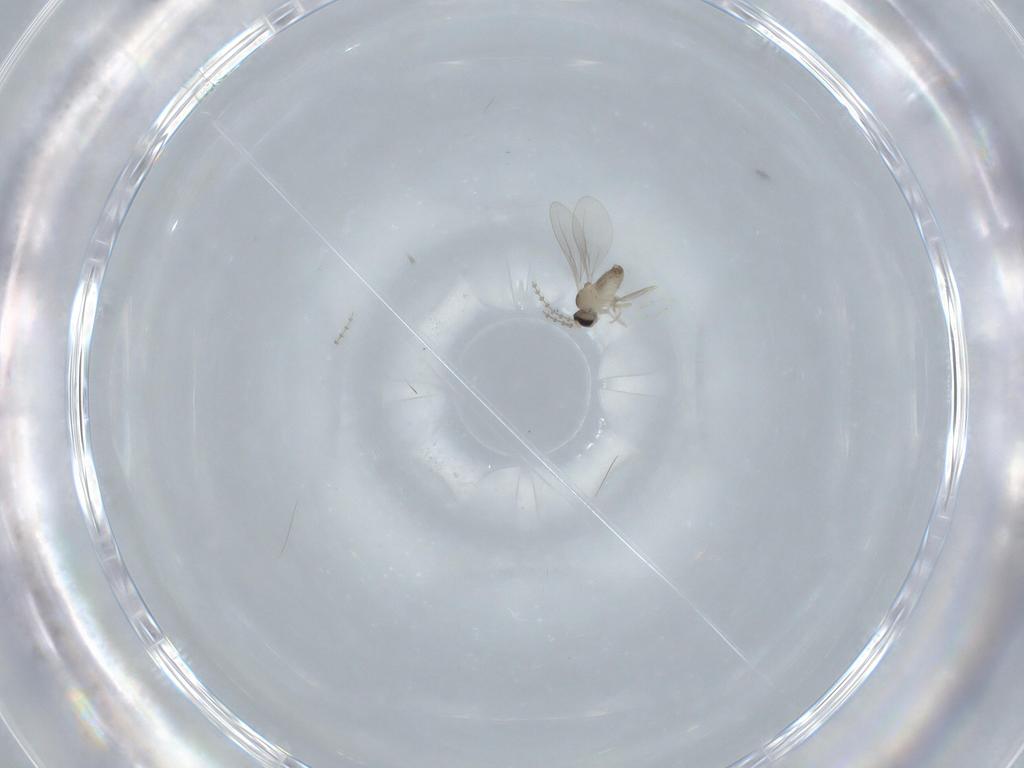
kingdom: Animalia
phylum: Arthropoda
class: Insecta
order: Diptera
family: Cecidomyiidae
